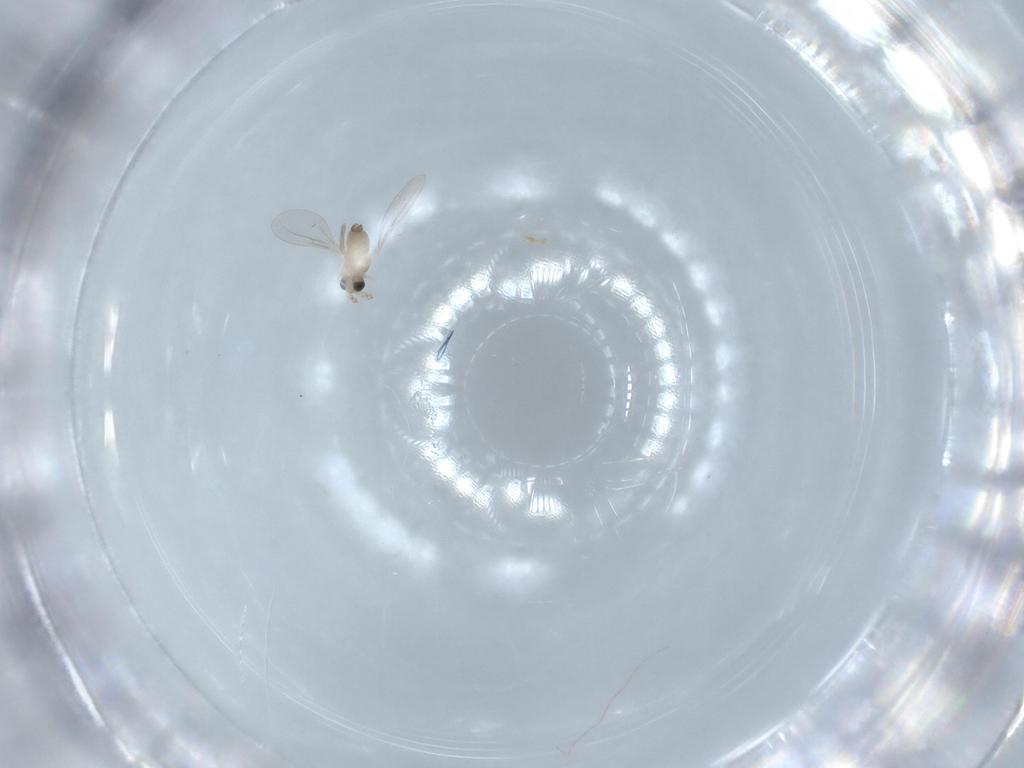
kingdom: Animalia
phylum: Arthropoda
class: Insecta
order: Diptera
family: Cecidomyiidae
